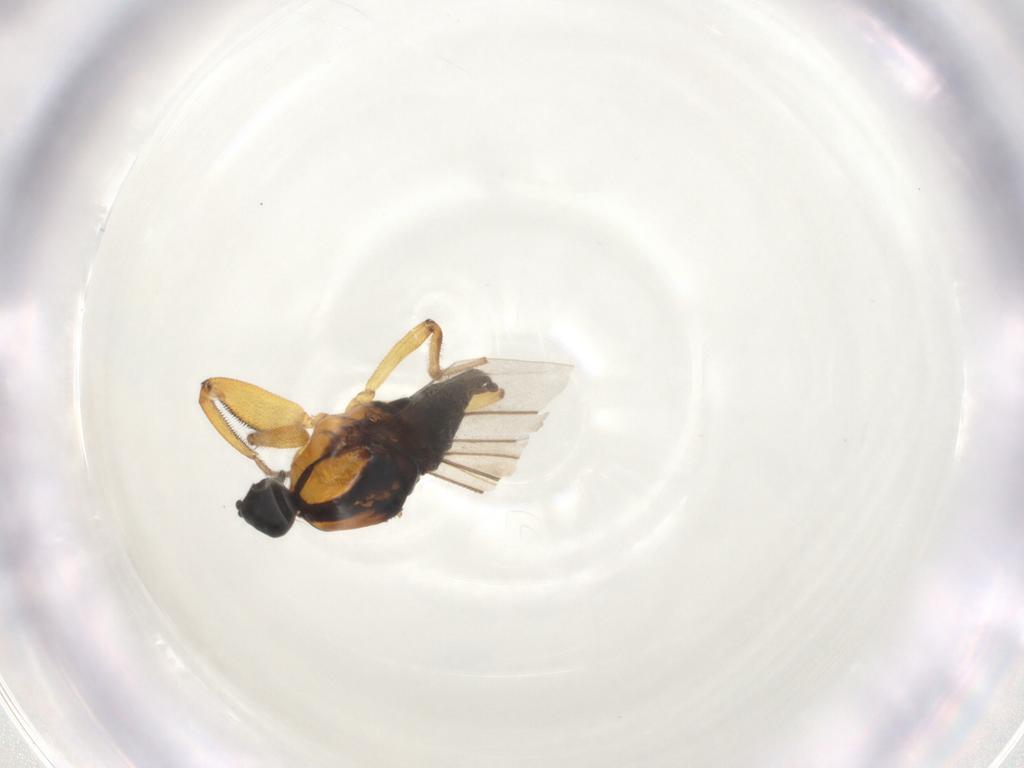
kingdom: Animalia
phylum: Arthropoda
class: Insecta
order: Diptera
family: Hybotidae
